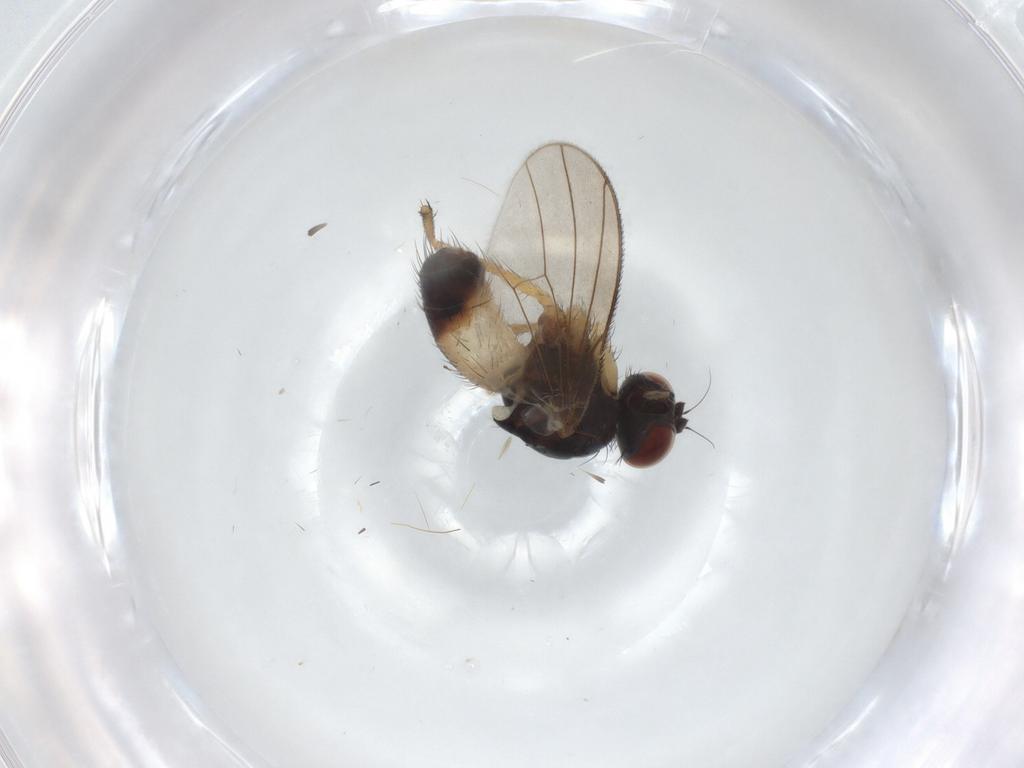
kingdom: Animalia
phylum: Arthropoda
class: Insecta
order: Diptera
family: Muscidae
